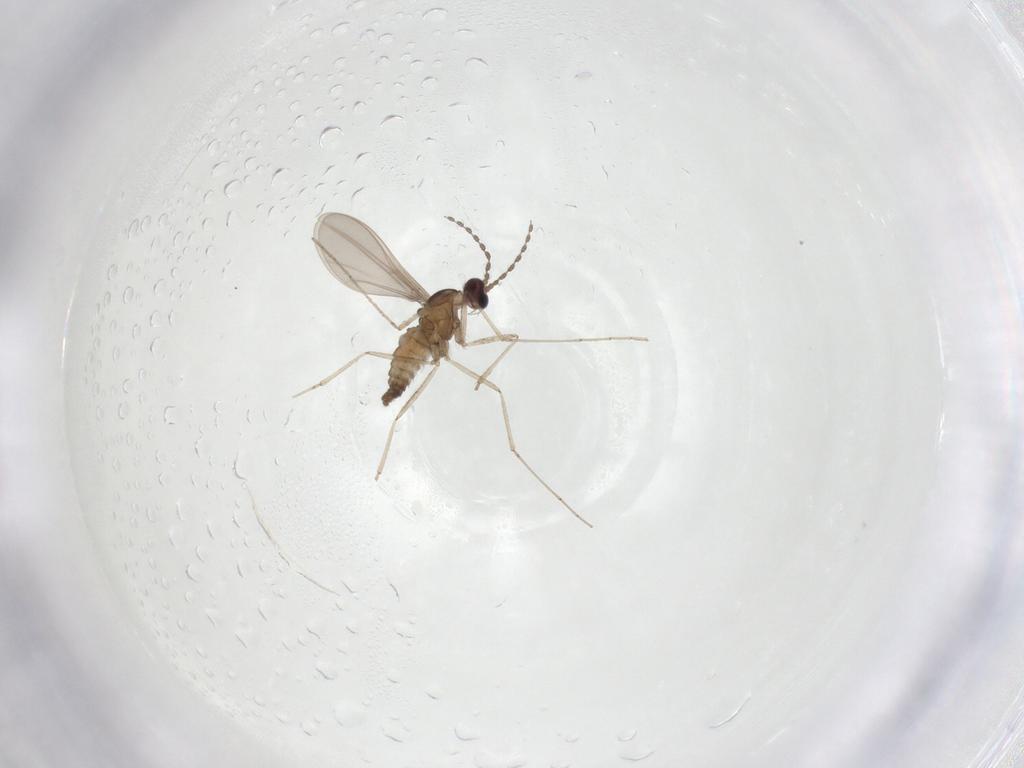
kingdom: Animalia
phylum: Arthropoda
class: Insecta
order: Diptera
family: Cecidomyiidae
